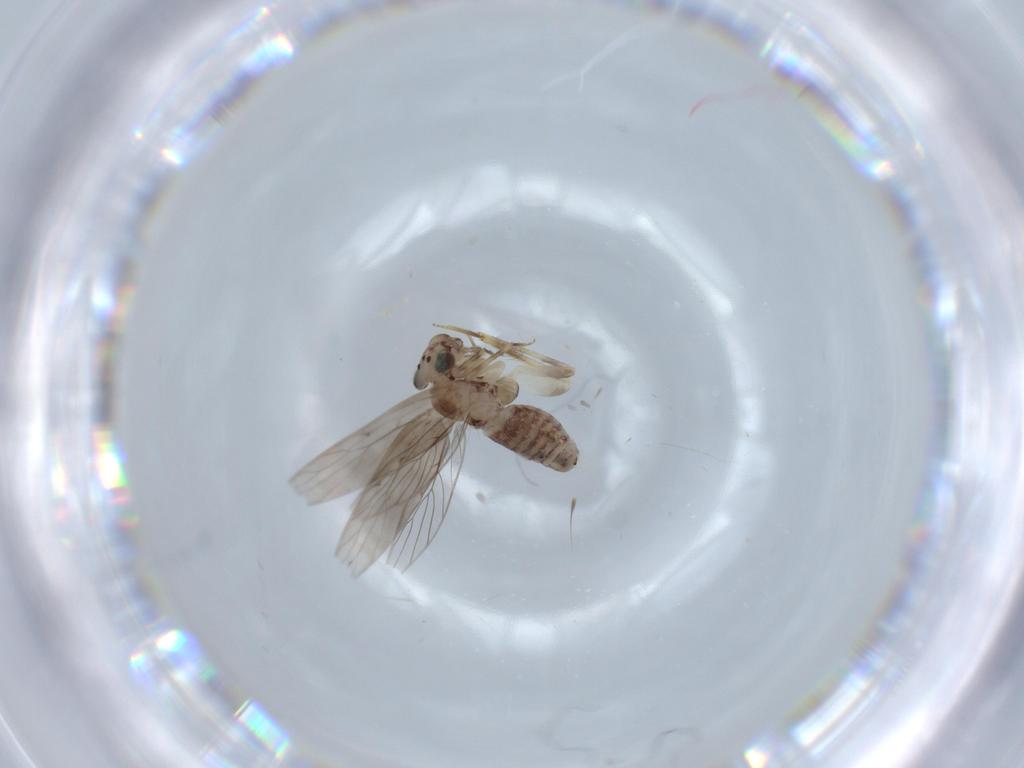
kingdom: Animalia
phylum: Arthropoda
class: Insecta
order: Psocodea
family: Lepidopsocidae
